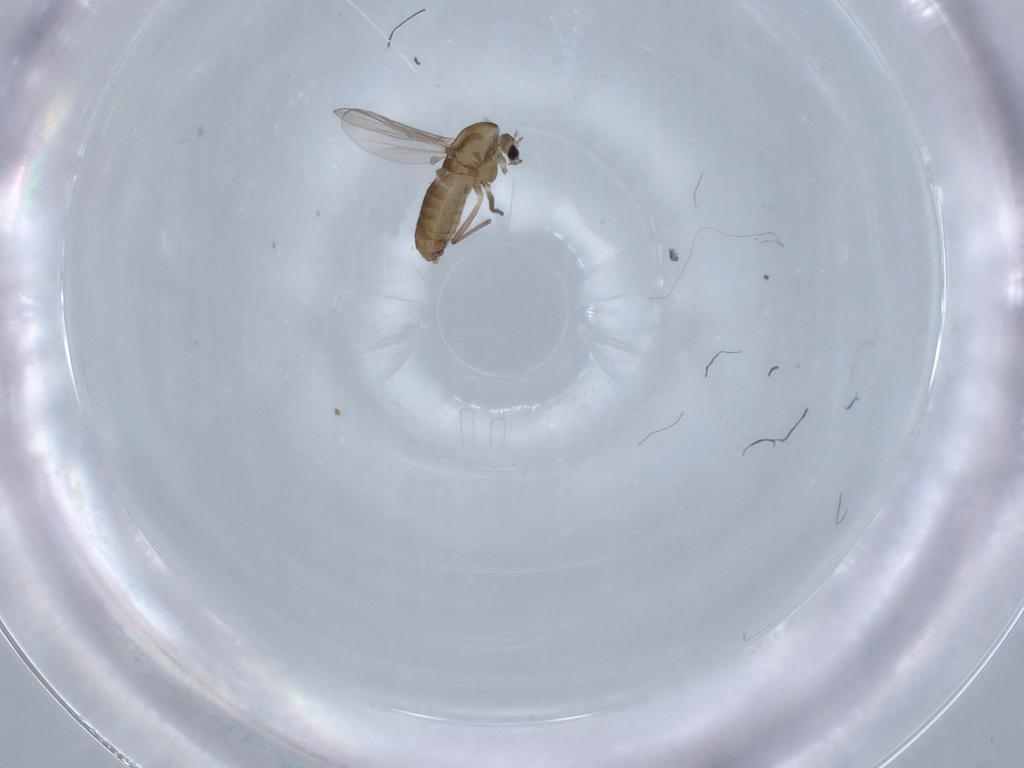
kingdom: Animalia
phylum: Arthropoda
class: Insecta
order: Diptera
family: Chironomidae
